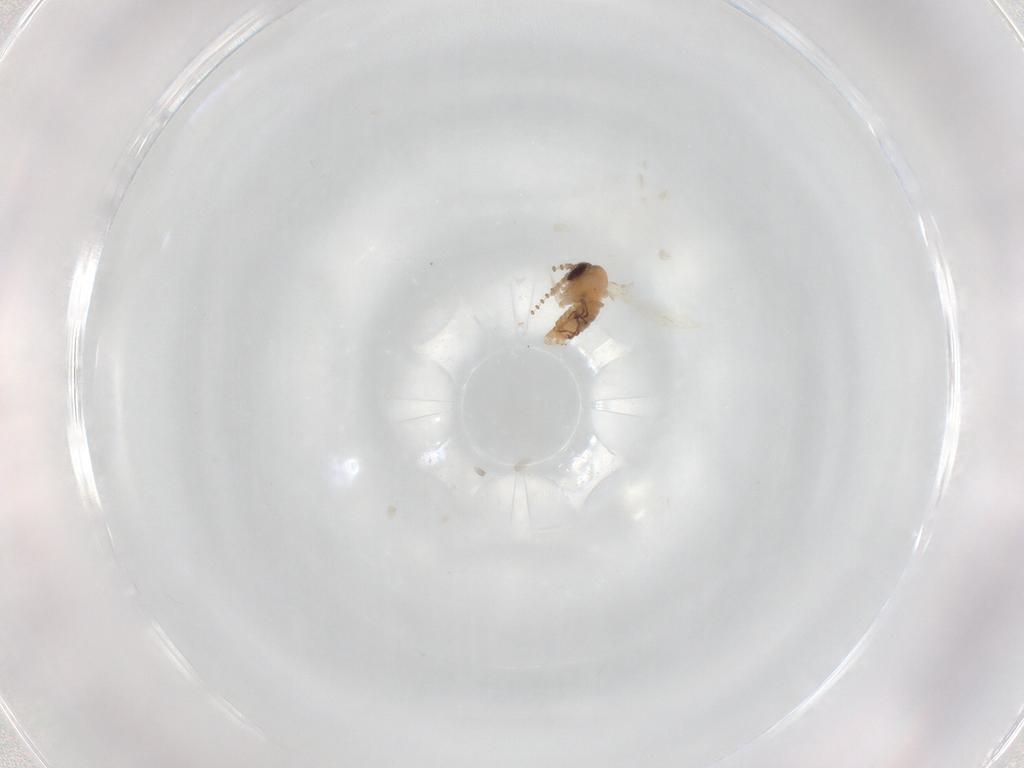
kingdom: Animalia
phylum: Arthropoda
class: Insecta
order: Diptera
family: Psychodidae
